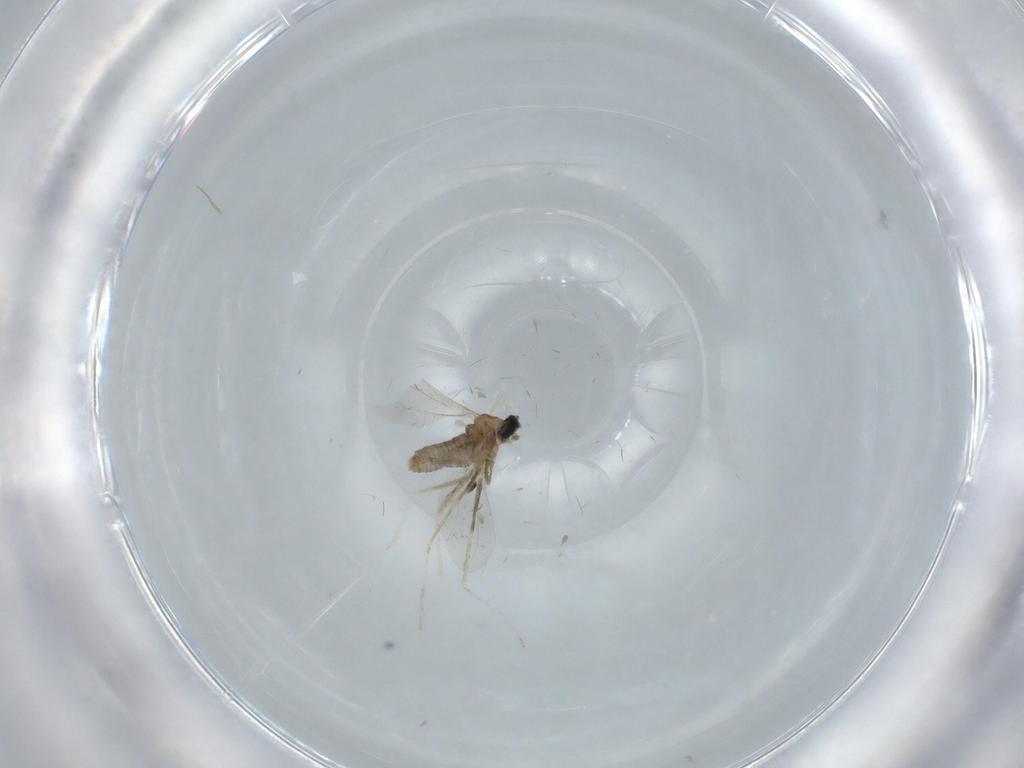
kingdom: Animalia
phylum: Arthropoda
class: Insecta
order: Diptera
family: Cecidomyiidae
